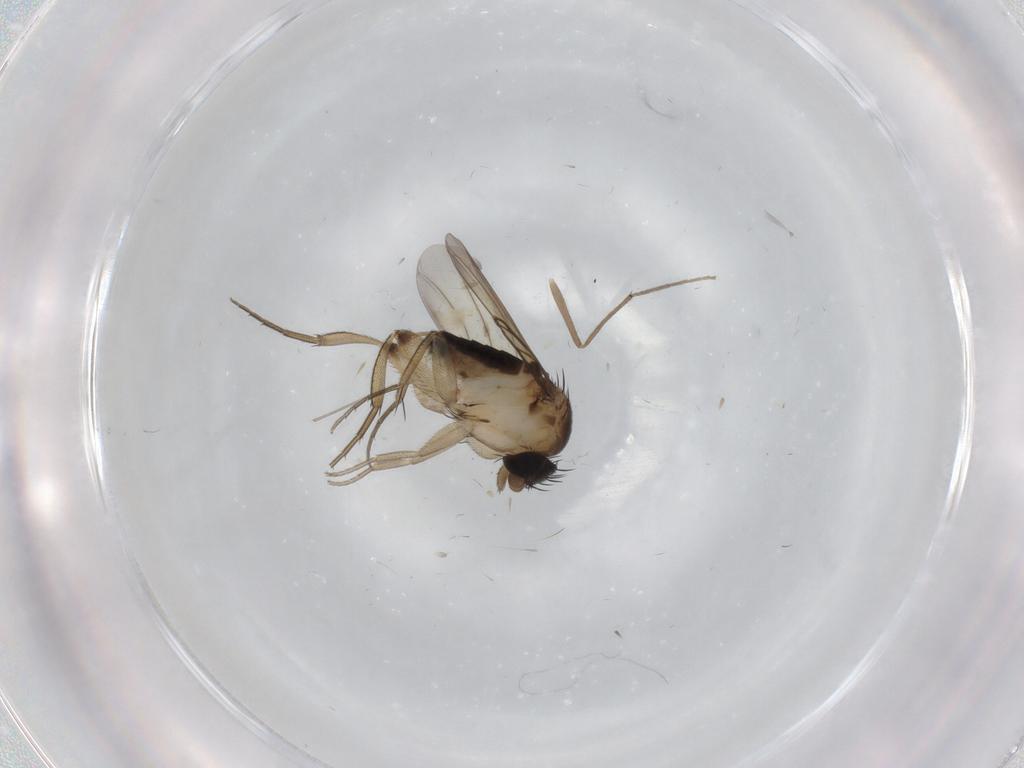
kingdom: Animalia
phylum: Arthropoda
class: Insecta
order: Diptera
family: Phoridae
